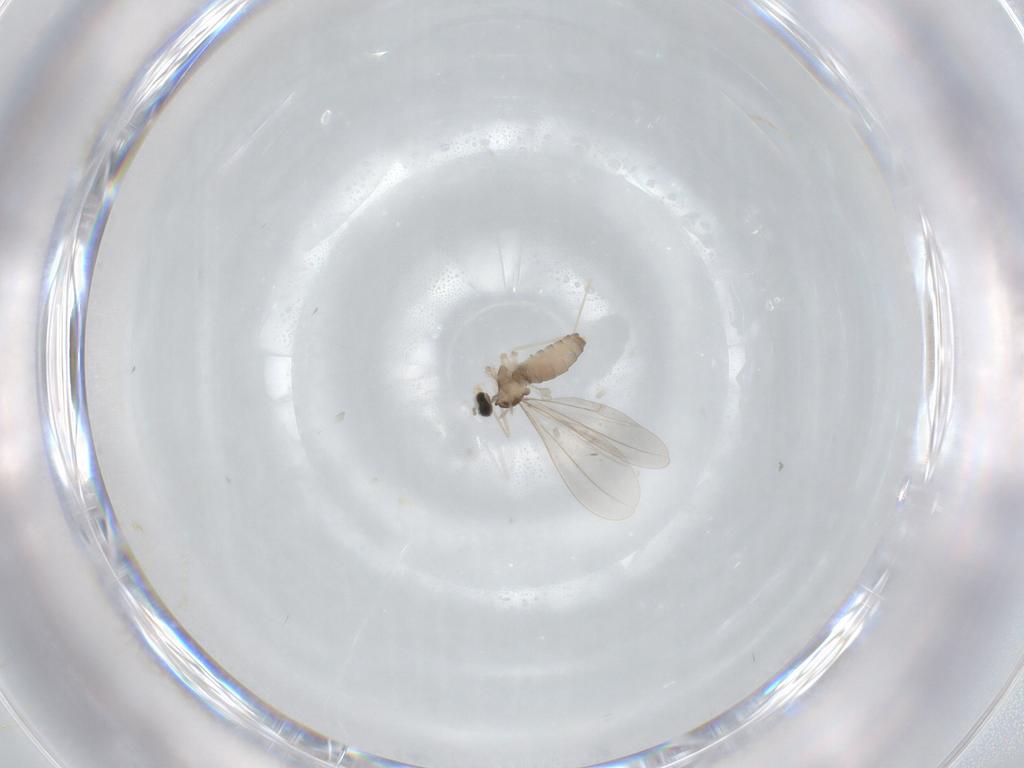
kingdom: Animalia
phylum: Arthropoda
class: Insecta
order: Diptera
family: Cecidomyiidae
